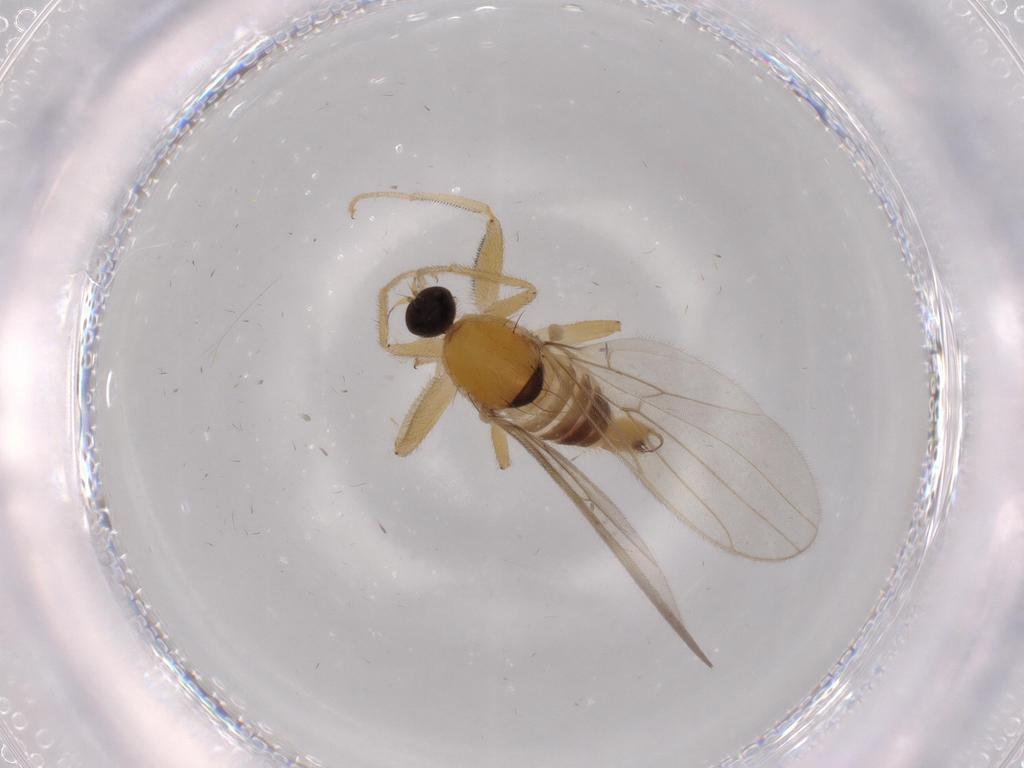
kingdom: Animalia
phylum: Arthropoda
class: Insecta
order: Diptera
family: Hybotidae
